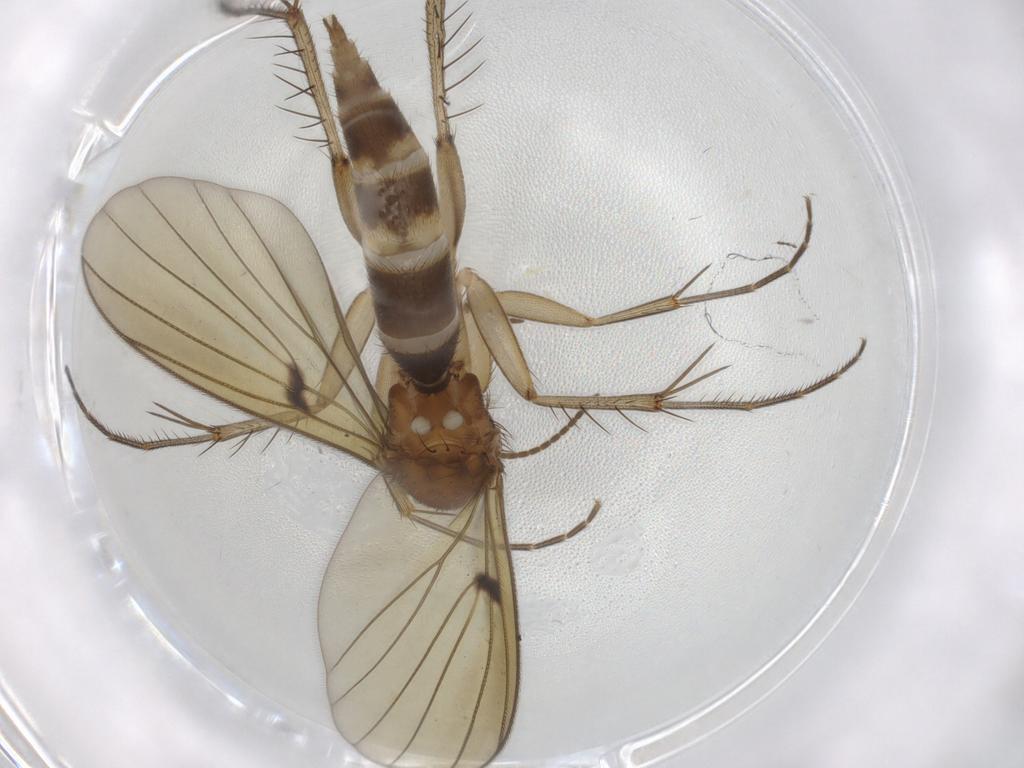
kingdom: Animalia
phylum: Arthropoda
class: Insecta
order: Diptera
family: Mycetophilidae
